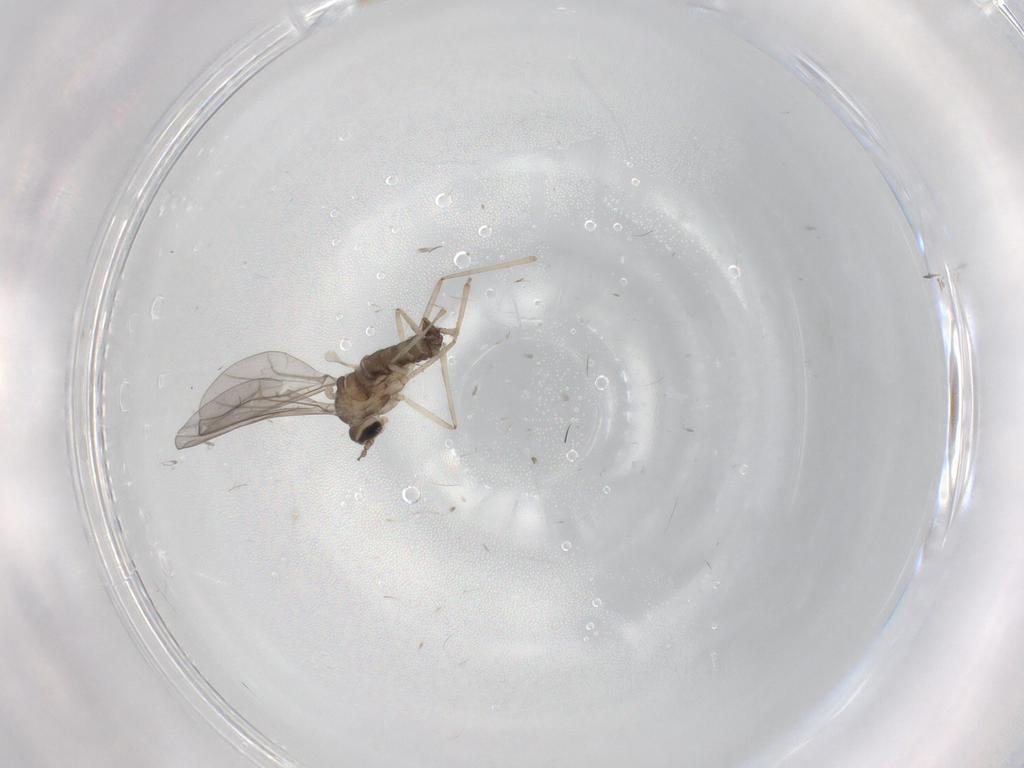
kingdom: Animalia
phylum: Arthropoda
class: Insecta
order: Diptera
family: Cecidomyiidae
